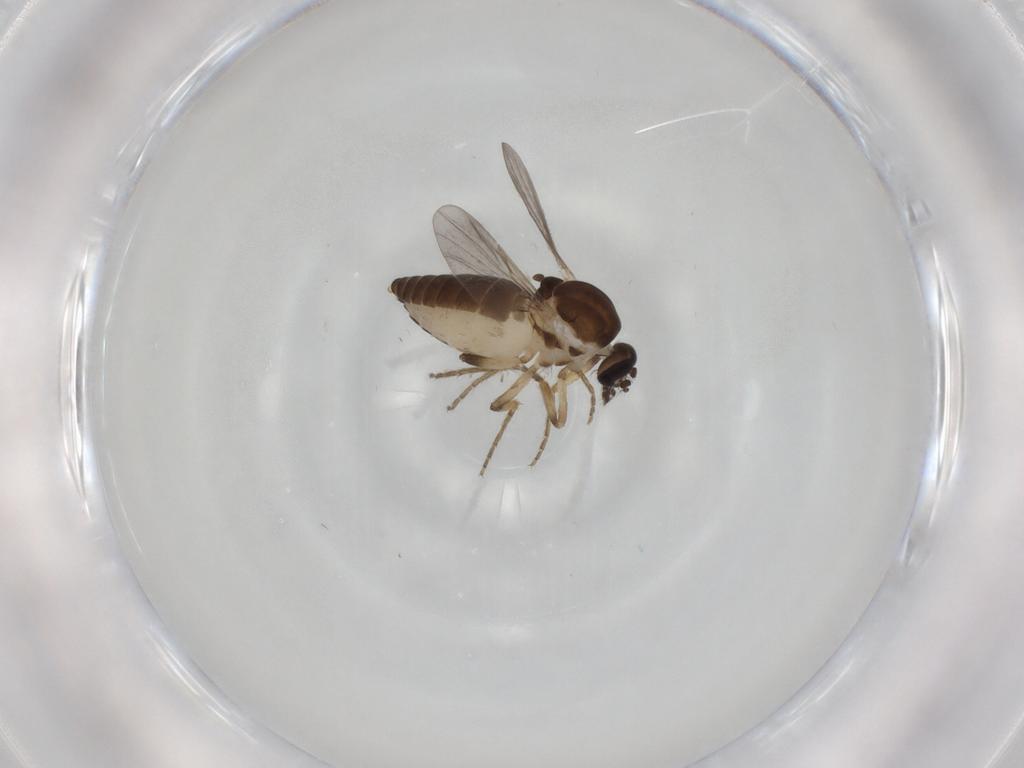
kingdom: Animalia
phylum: Arthropoda
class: Insecta
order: Diptera
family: Ceratopogonidae
